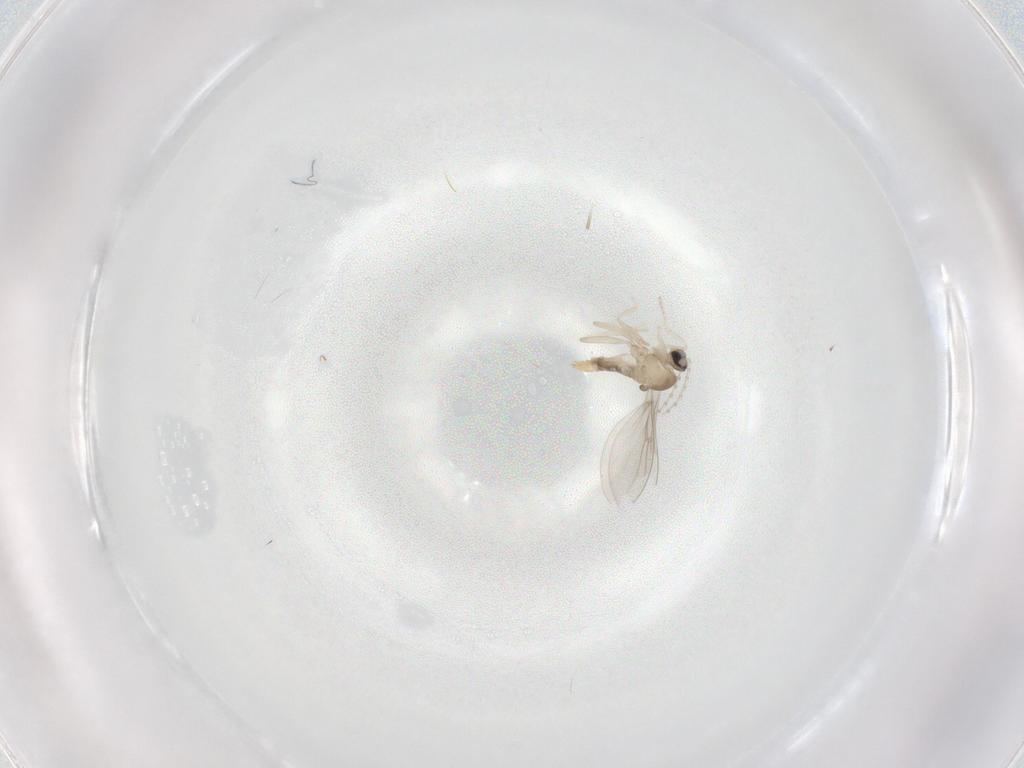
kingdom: Animalia
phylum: Arthropoda
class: Insecta
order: Diptera
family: Cecidomyiidae
